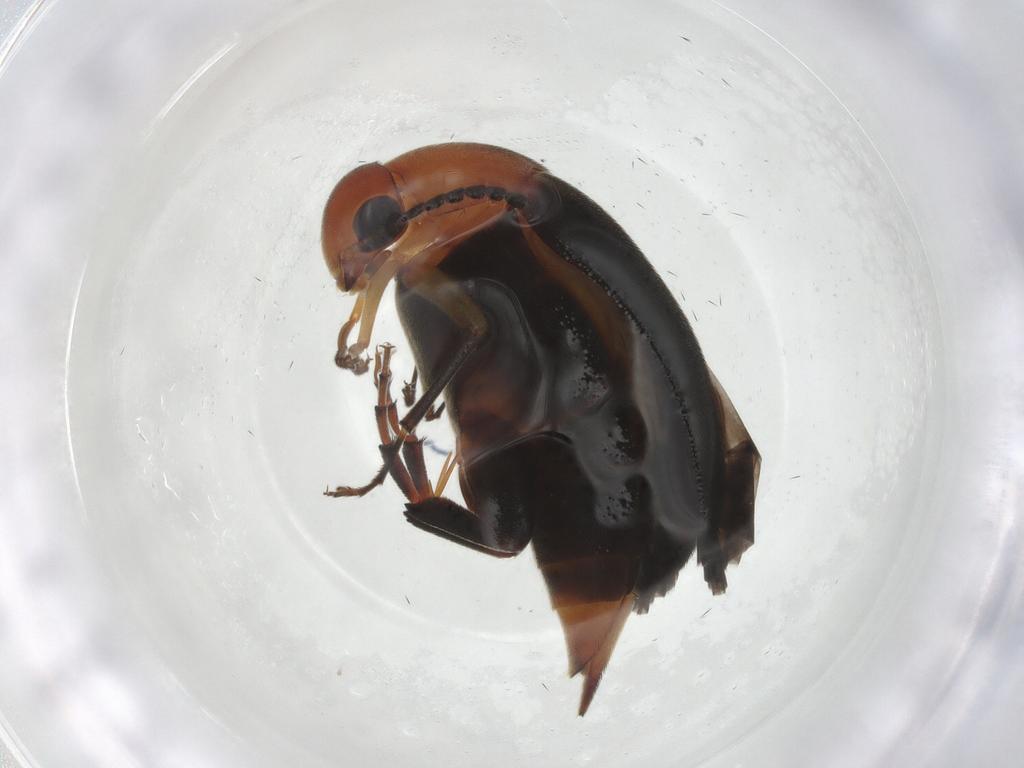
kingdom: Animalia
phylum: Arthropoda
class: Insecta
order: Coleoptera
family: Mordellidae
